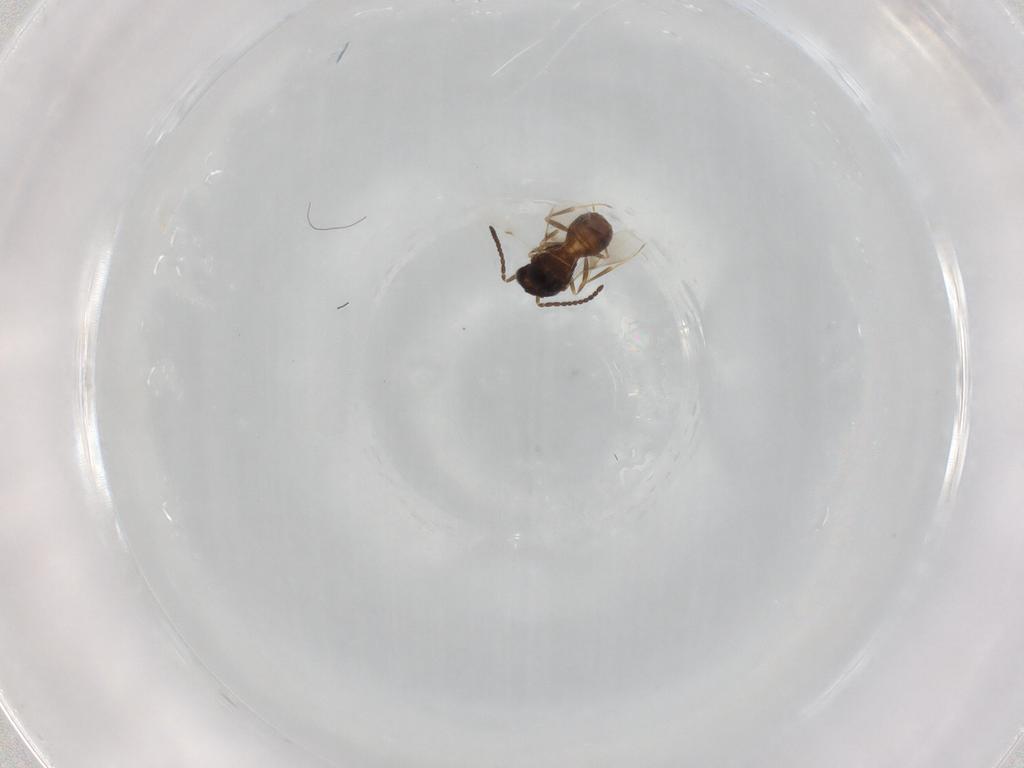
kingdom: Animalia
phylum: Arthropoda
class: Insecta
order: Hymenoptera
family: Scelionidae
